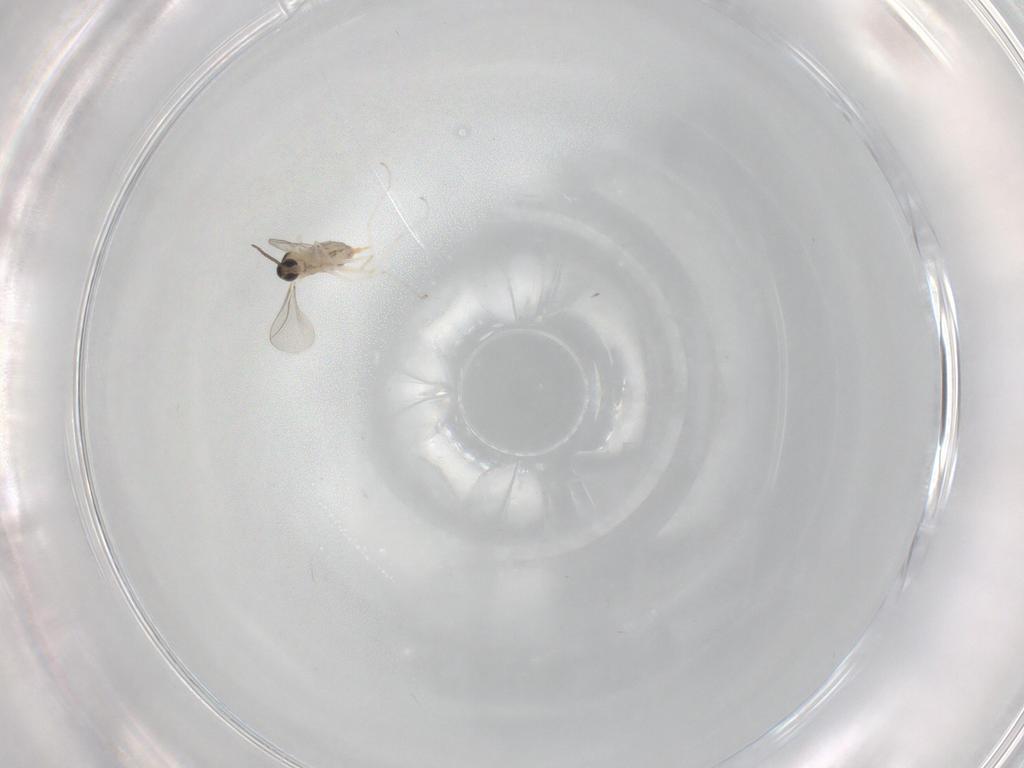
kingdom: Animalia
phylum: Arthropoda
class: Insecta
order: Diptera
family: Cecidomyiidae
